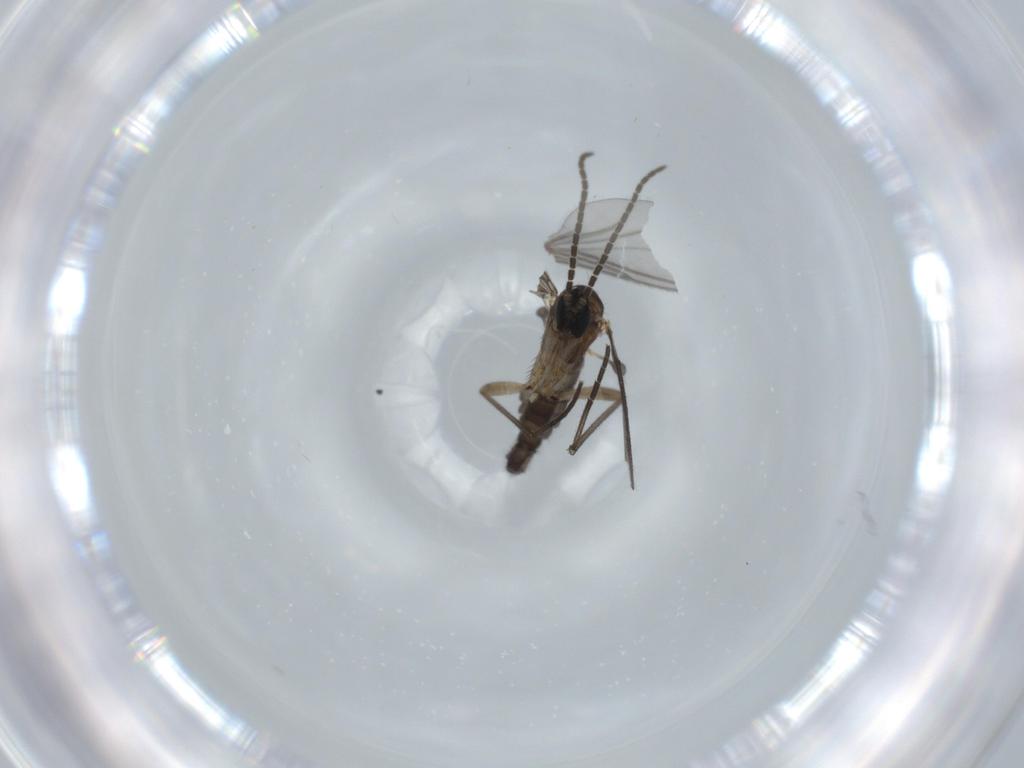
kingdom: Animalia
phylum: Arthropoda
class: Insecta
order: Diptera
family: Sciaridae
